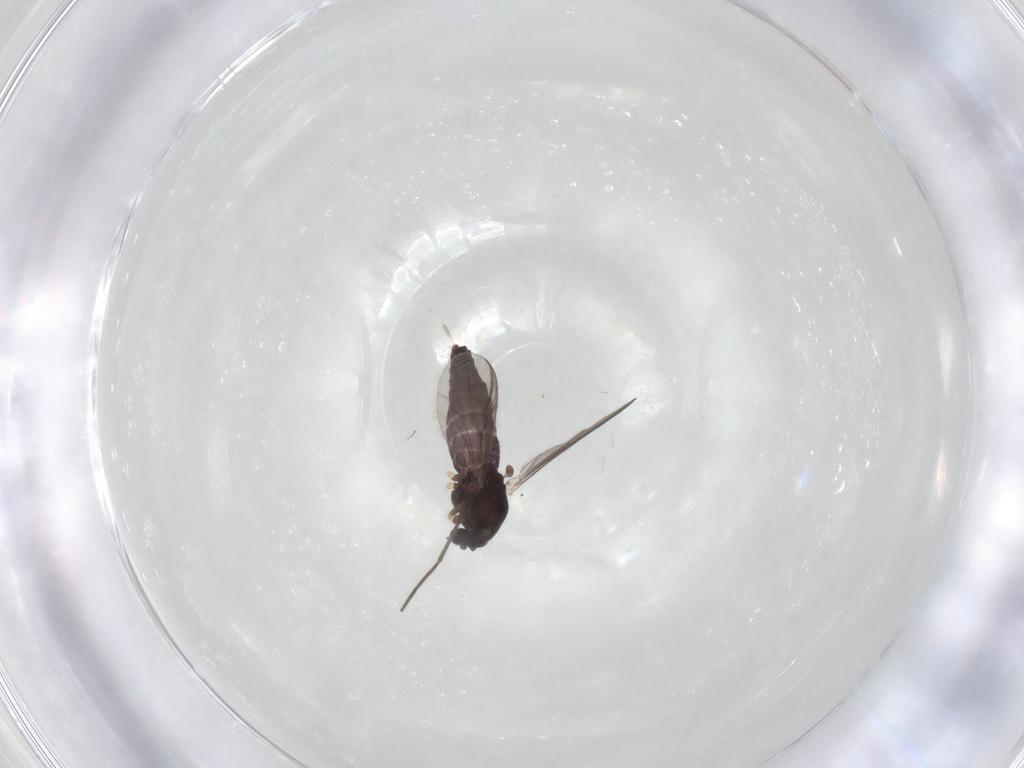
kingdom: Animalia
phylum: Arthropoda
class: Insecta
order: Diptera
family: Chironomidae
